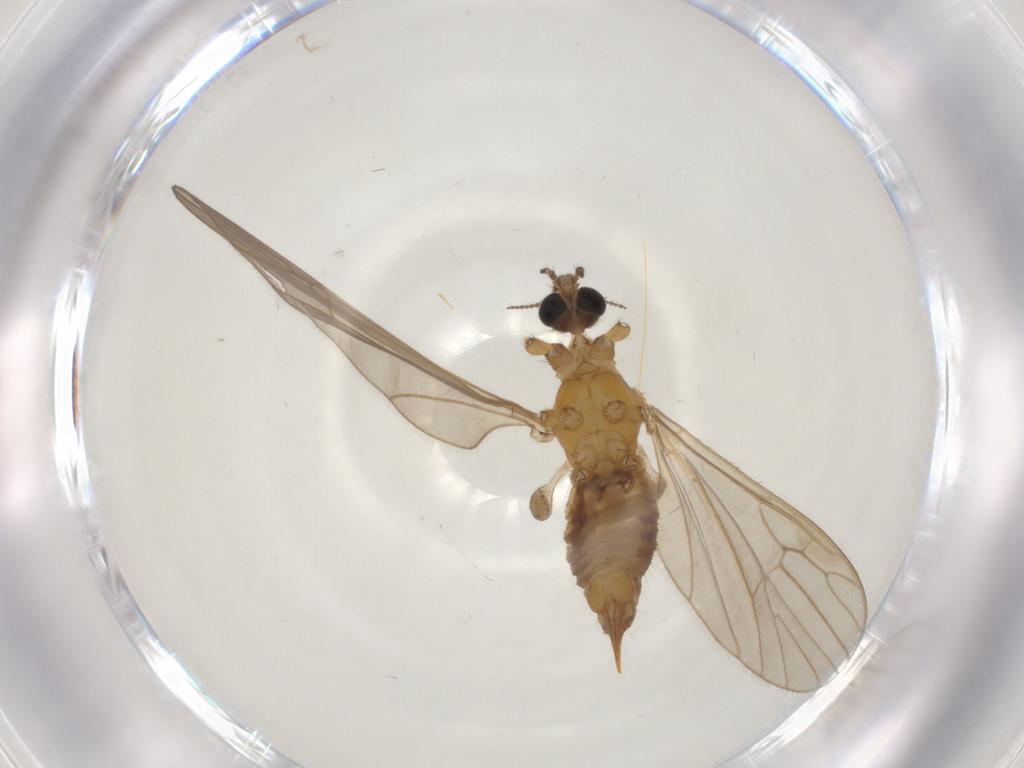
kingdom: Animalia
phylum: Arthropoda
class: Insecta
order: Diptera
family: Limoniidae
